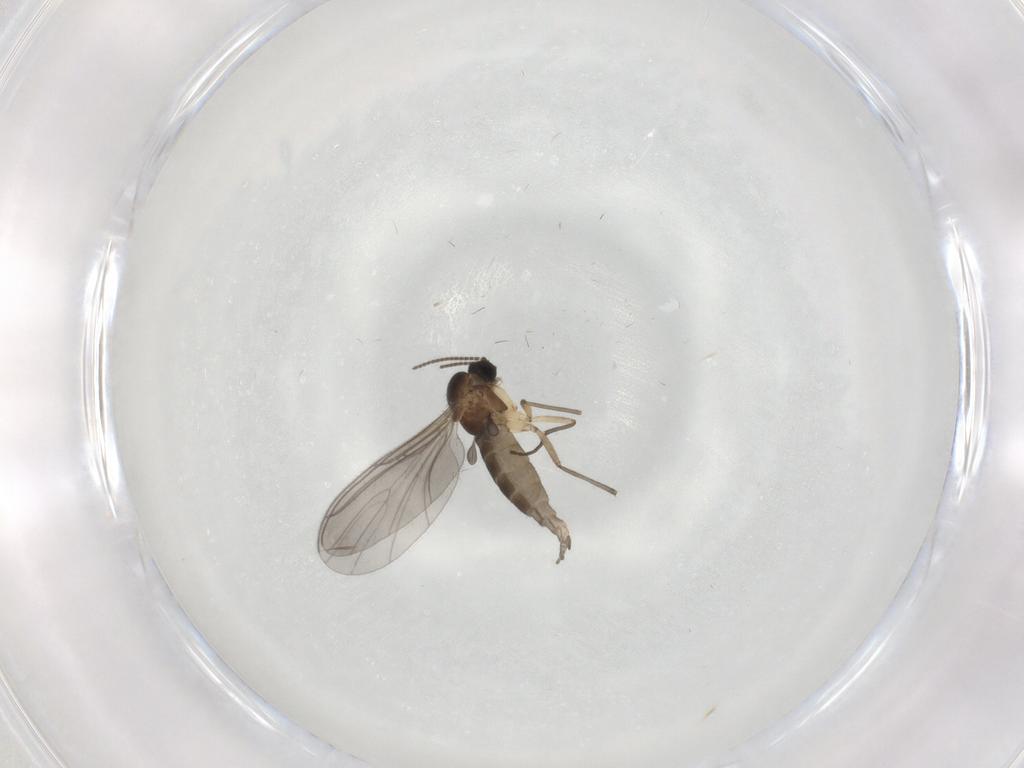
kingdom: Animalia
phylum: Arthropoda
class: Insecta
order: Diptera
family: Sciaridae
